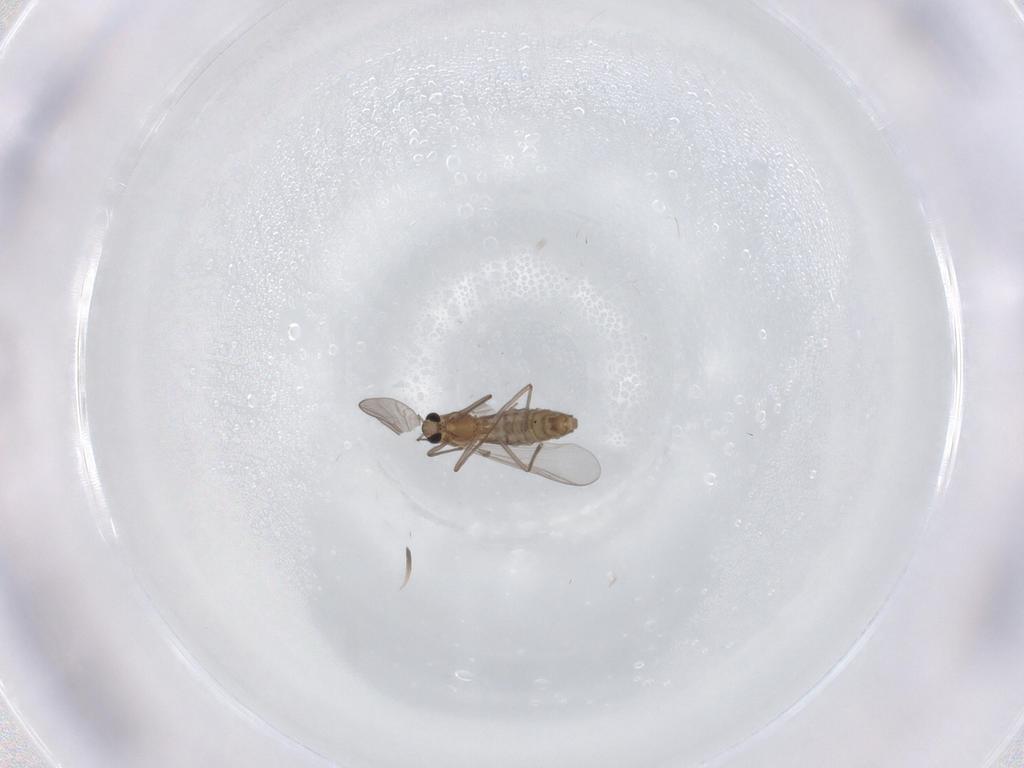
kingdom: Animalia
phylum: Arthropoda
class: Insecta
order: Diptera
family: Chironomidae
